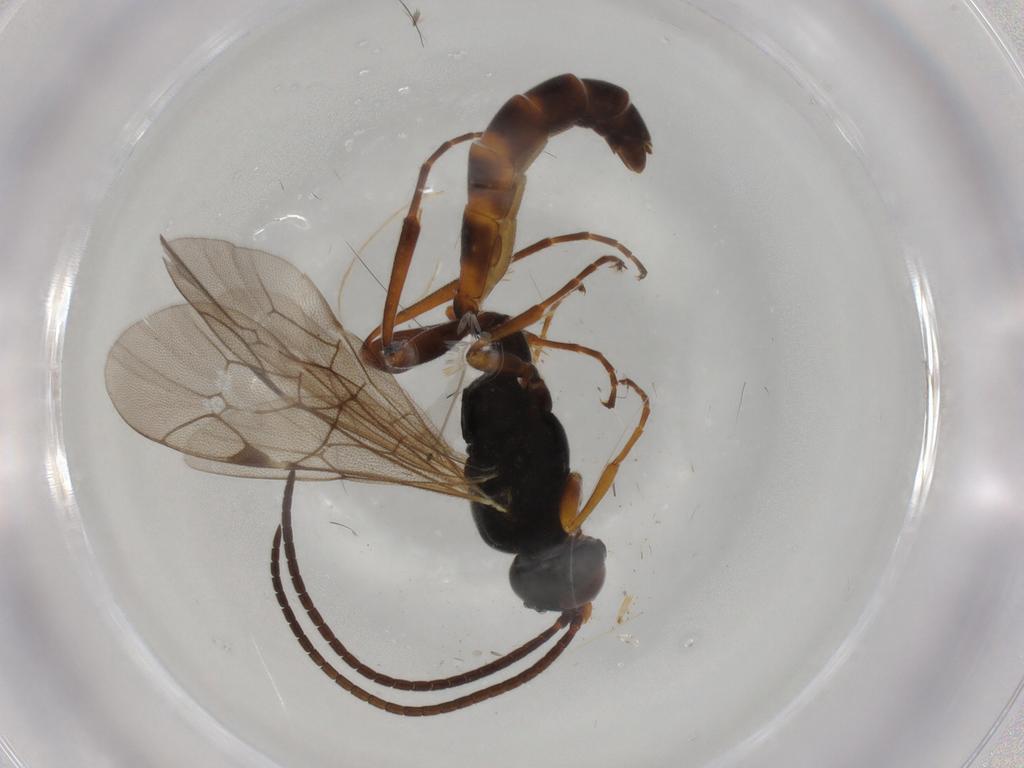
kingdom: Animalia
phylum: Arthropoda
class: Insecta
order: Hymenoptera
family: Ichneumonidae
